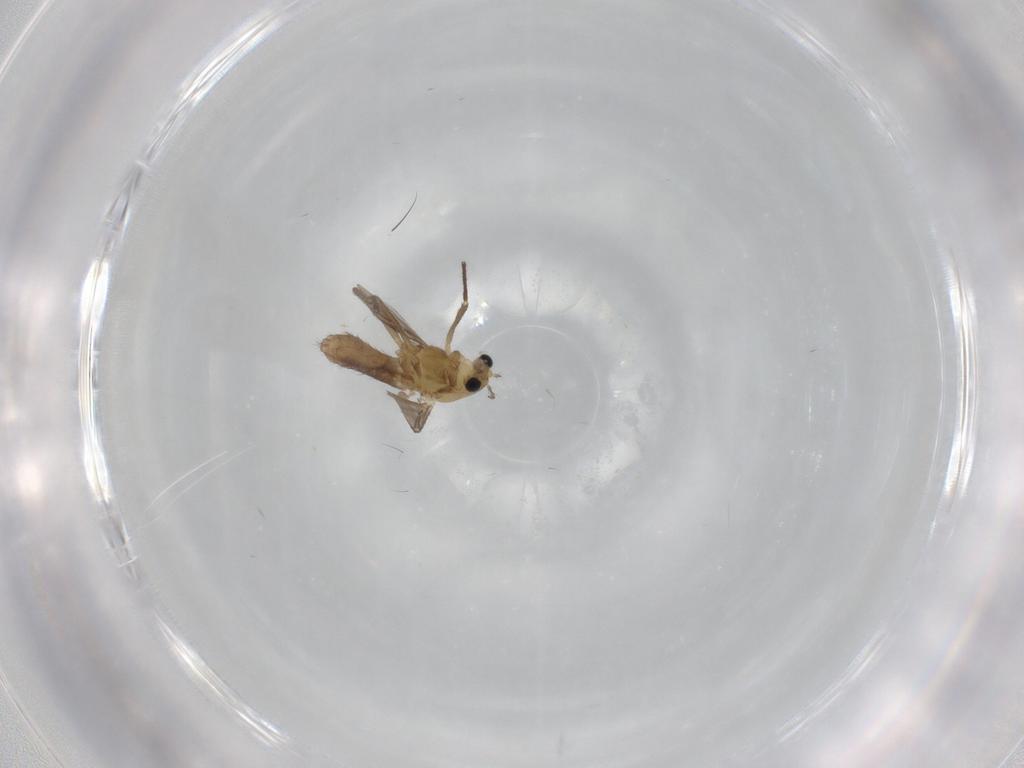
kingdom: Animalia
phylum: Arthropoda
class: Insecta
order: Diptera
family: Chironomidae
